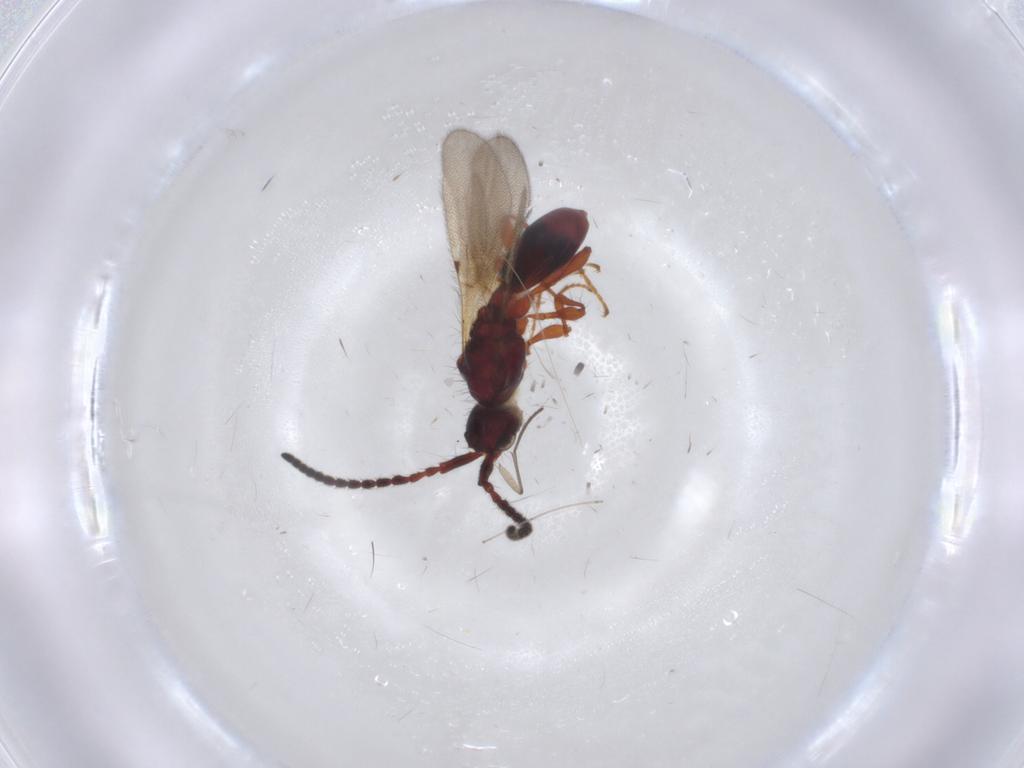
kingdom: Animalia
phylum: Arthropoda
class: Insecta
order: Hymenoptera
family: Diapriidae
